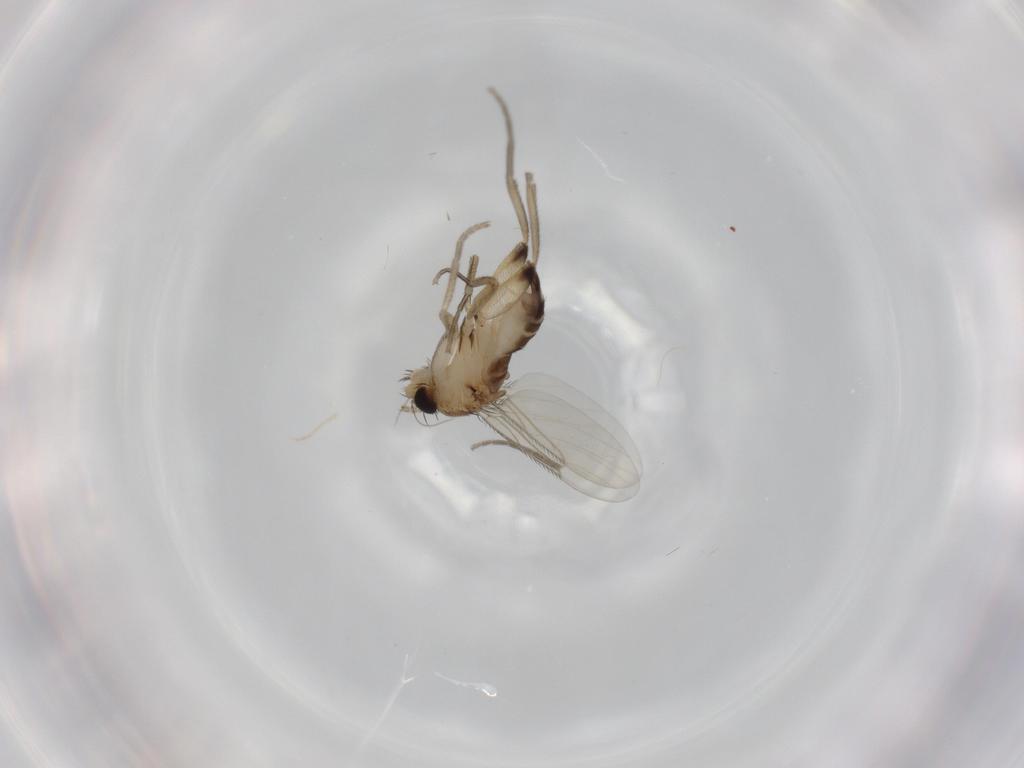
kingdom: Animalia
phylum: Arthropoda
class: Insecta
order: Diptera
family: Phoridae
